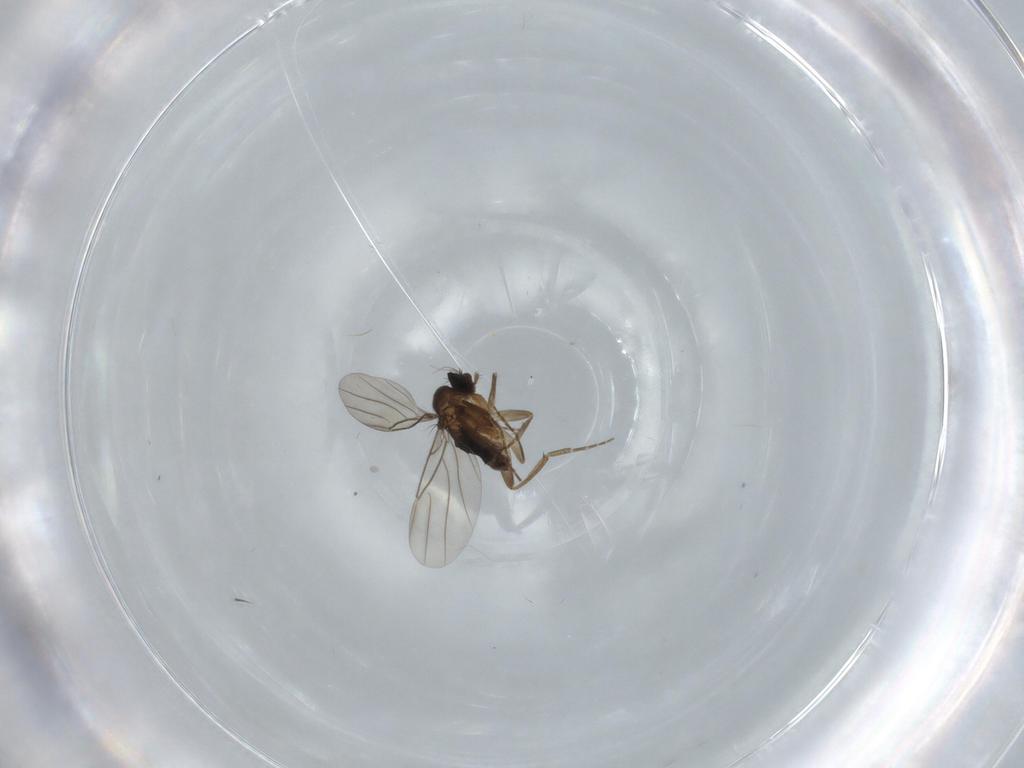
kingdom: Animalia
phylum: Arthropoda
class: Insecta
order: Diptera
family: Phoridae
